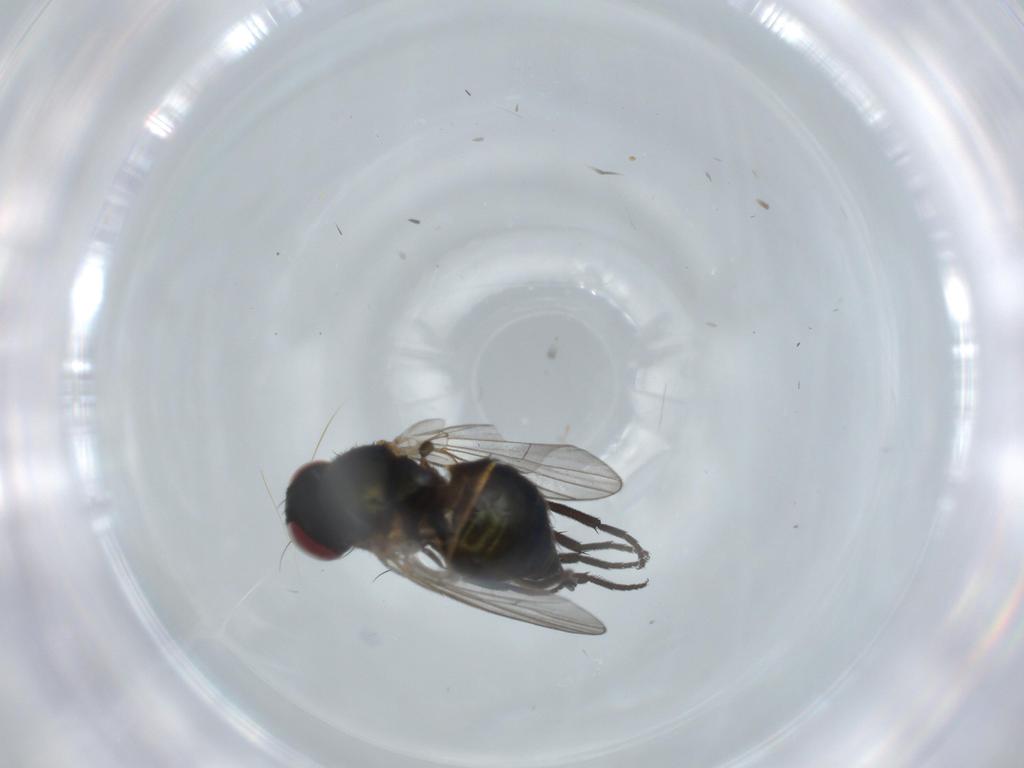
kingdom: Animalia
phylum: Arthropoda
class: Insecta
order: Diptera
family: Agromyzidae
